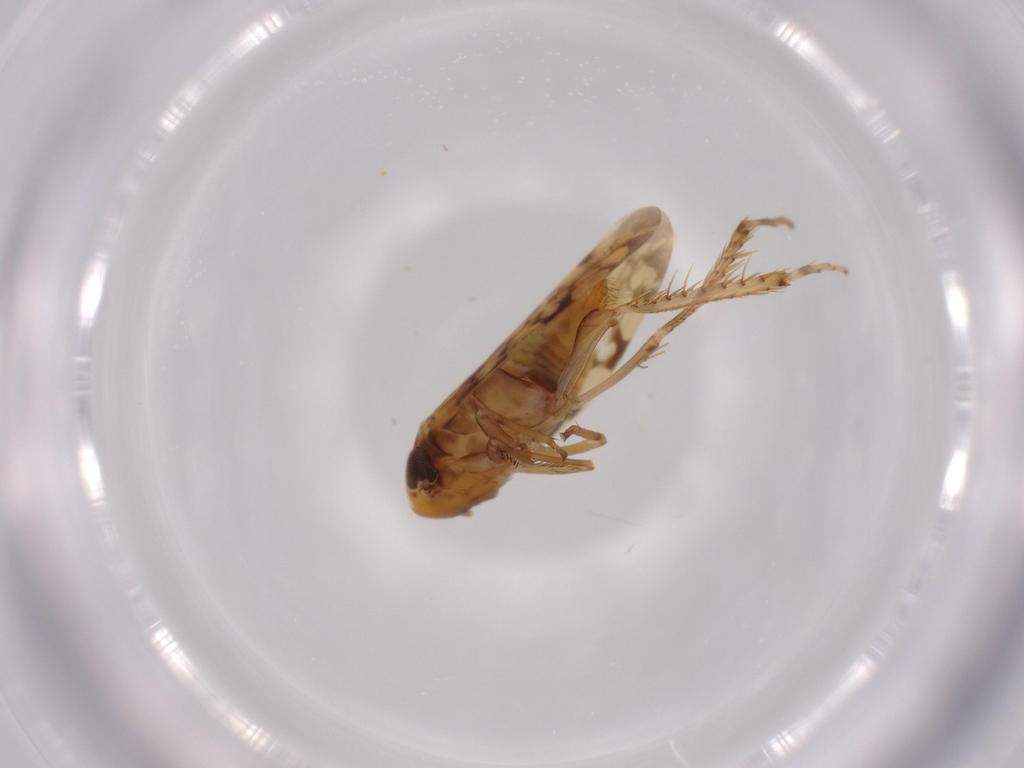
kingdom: Animalia
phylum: Arthropoda
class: Insecta
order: Hemiptera
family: Cicadellidae
